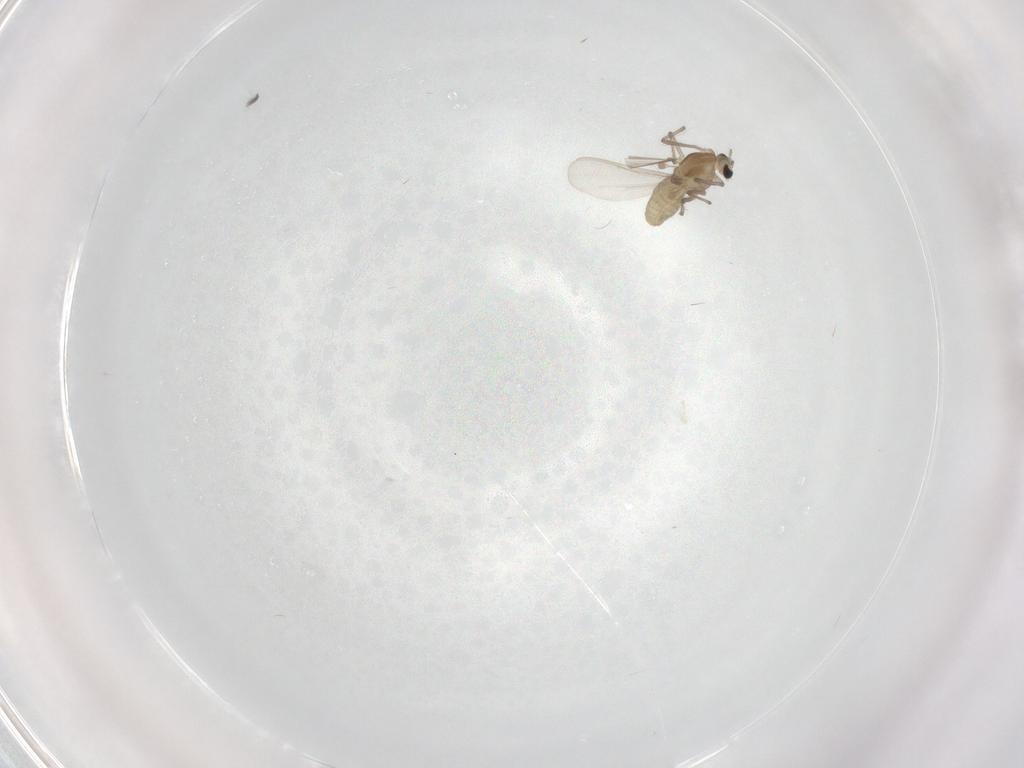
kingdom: Animalia
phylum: Arthropoda
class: Insecta
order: Diptera
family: Chironomidae
